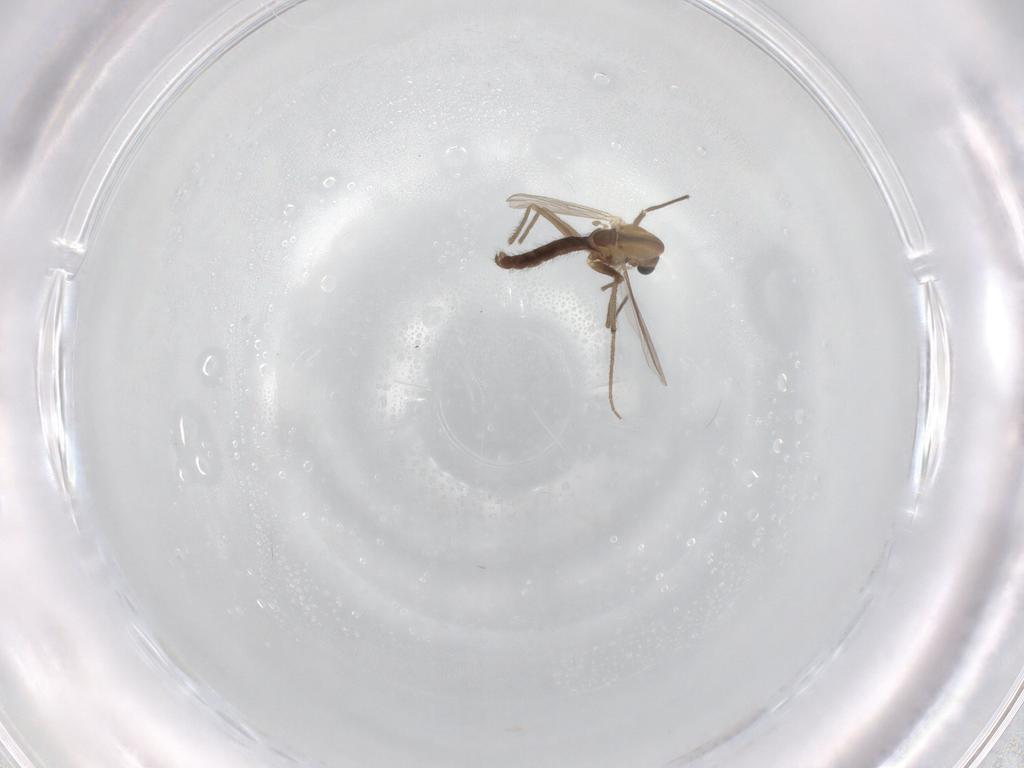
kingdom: Animalia
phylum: Arthropoda
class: Insecta
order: Diptera
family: Chironomidae
